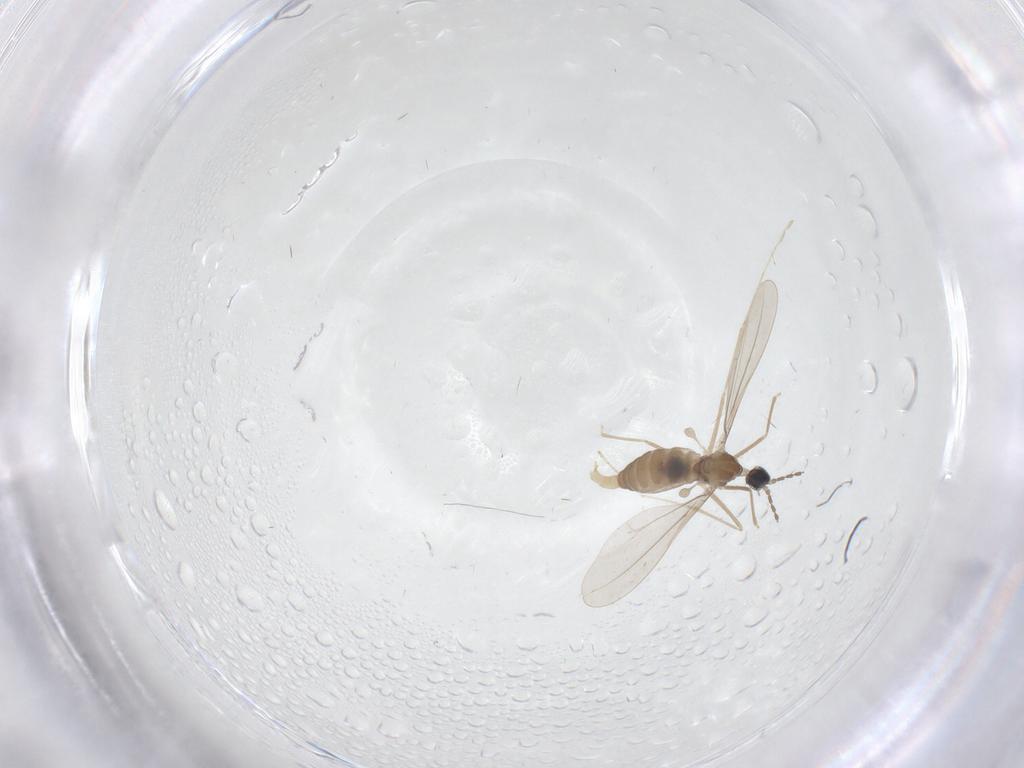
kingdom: Animalia
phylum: Arthropoda
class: Insecta
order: Diptera
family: Cecidomyiidae
